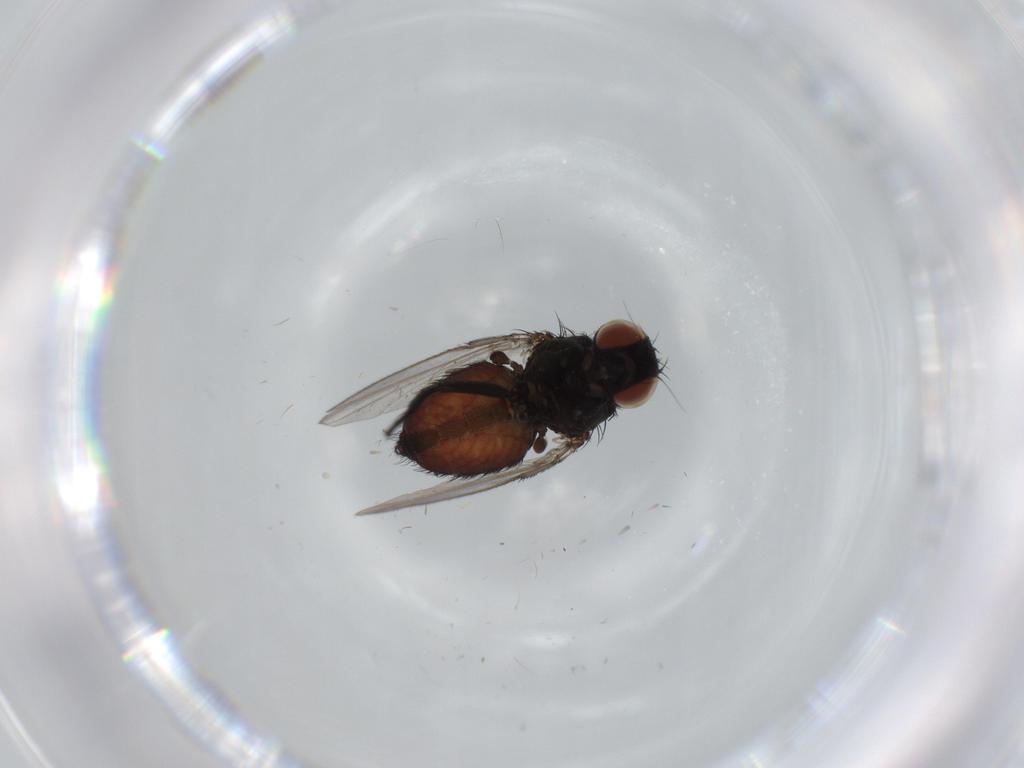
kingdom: Animalia
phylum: Arthropoda
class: Insecta
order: Diptera
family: Milichiidae
